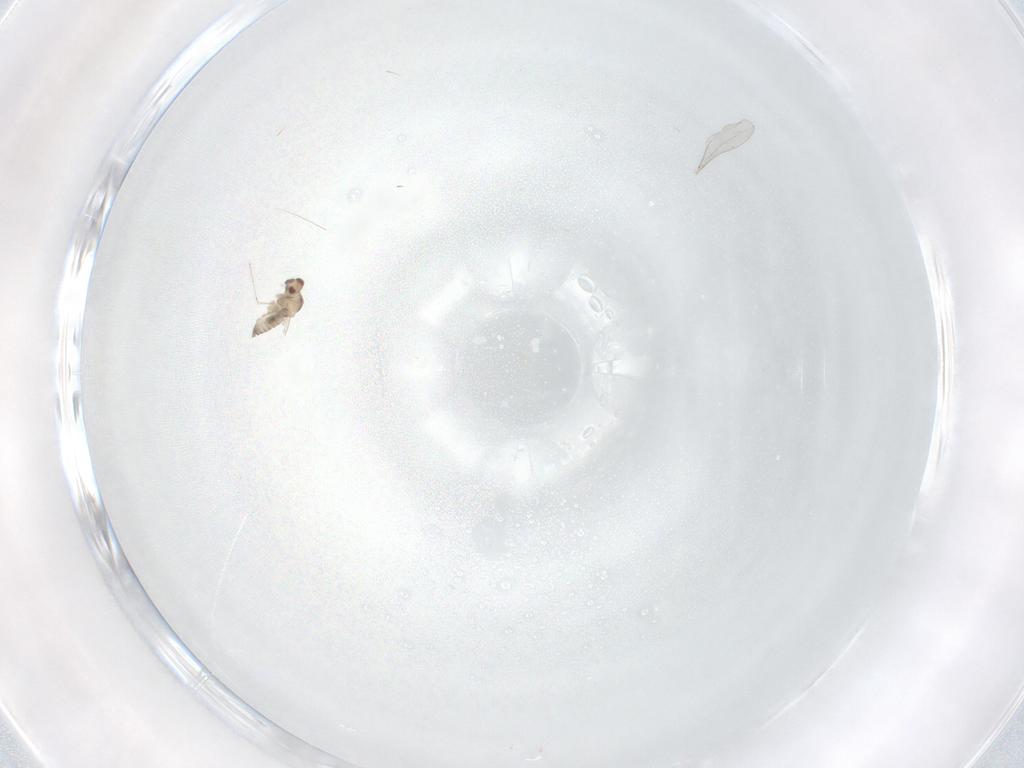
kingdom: Animalia
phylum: Arthropoda
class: Insecta
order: Diptera
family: Cecidomyiidae
